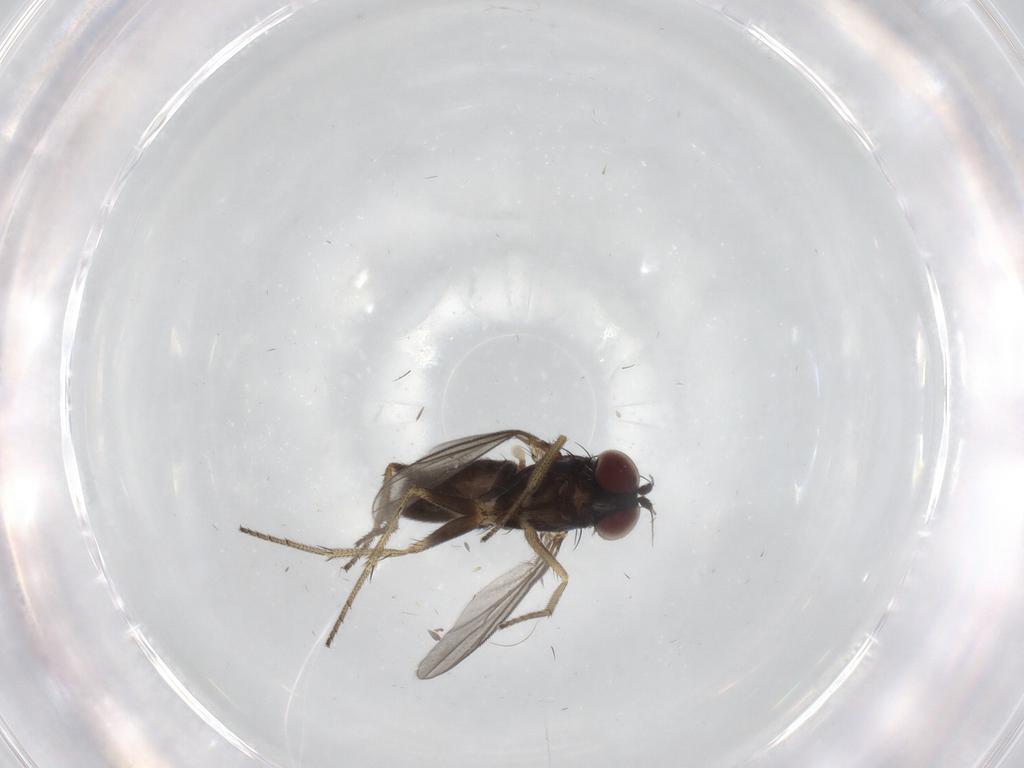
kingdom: Animalia
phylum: Arthropoda
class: Insecta
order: Diptera
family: Dolichopodidae
